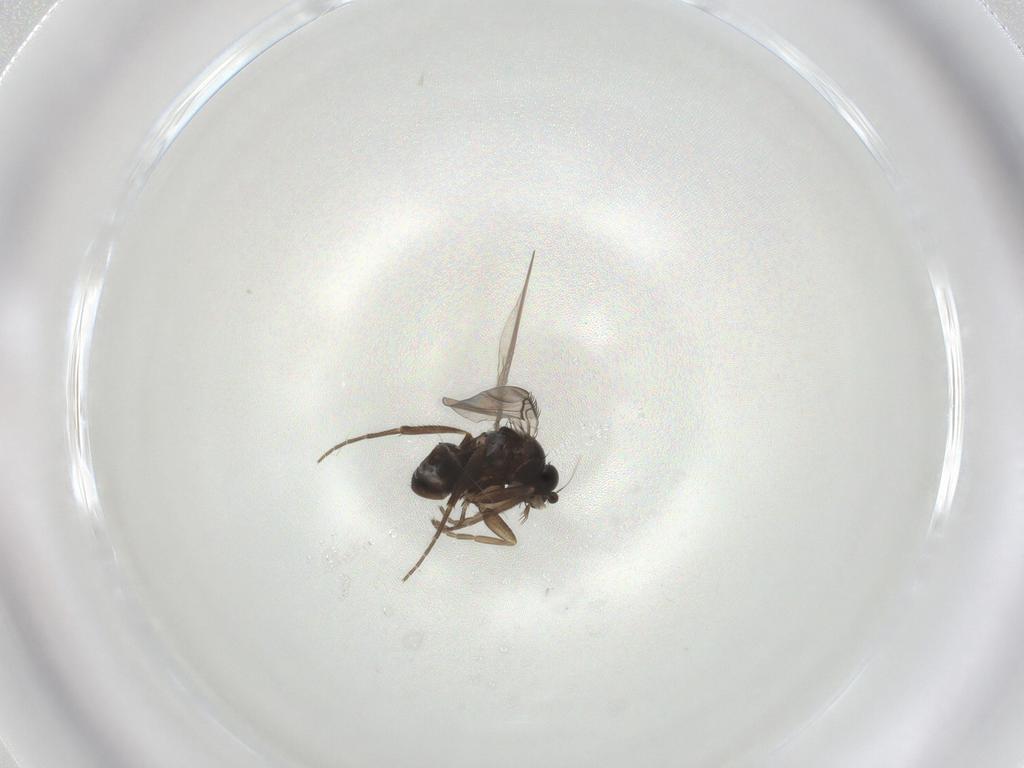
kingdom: Animalia
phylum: Arthropoda
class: Insecta
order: Diptera
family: Phoridae
